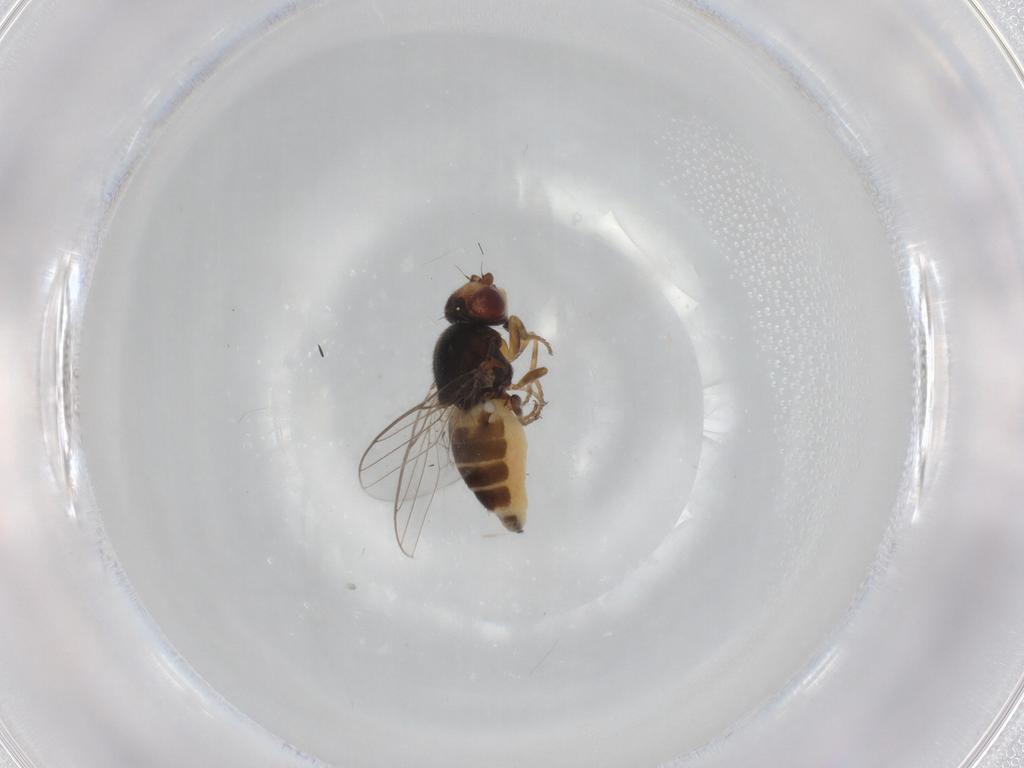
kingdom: Animalia
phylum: Arthropoda
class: Insecta
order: Diptera
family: Chloropidae
